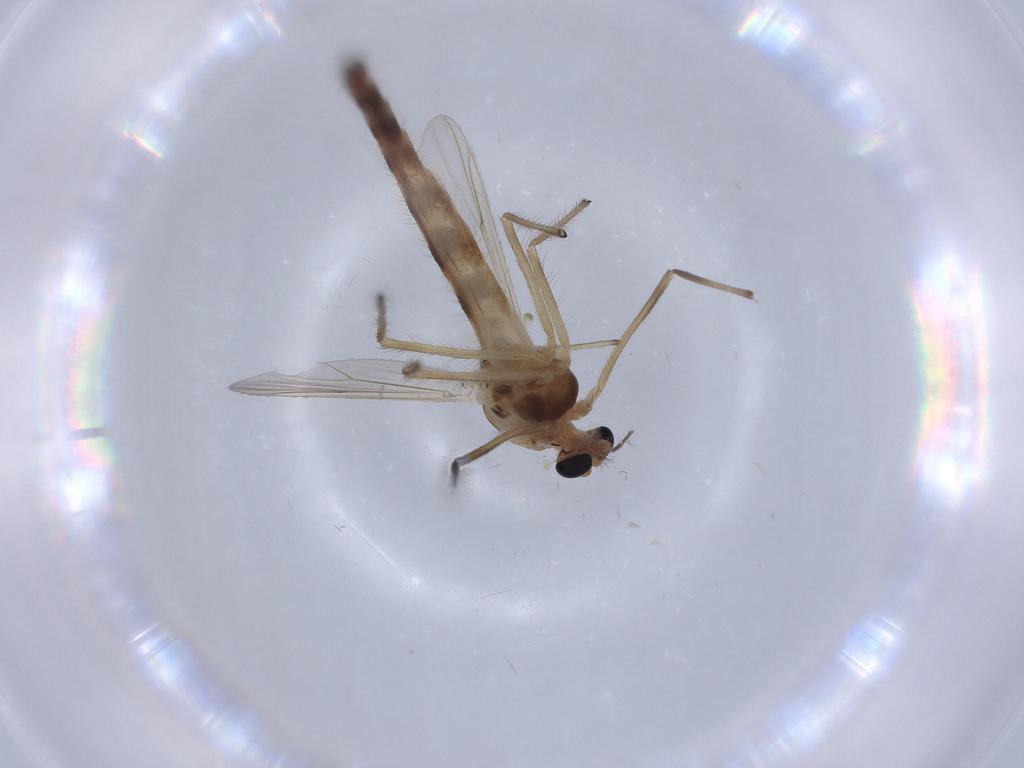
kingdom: Animalia
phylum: Arthropoda
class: Insecta
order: Diptera
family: Chironomidae
